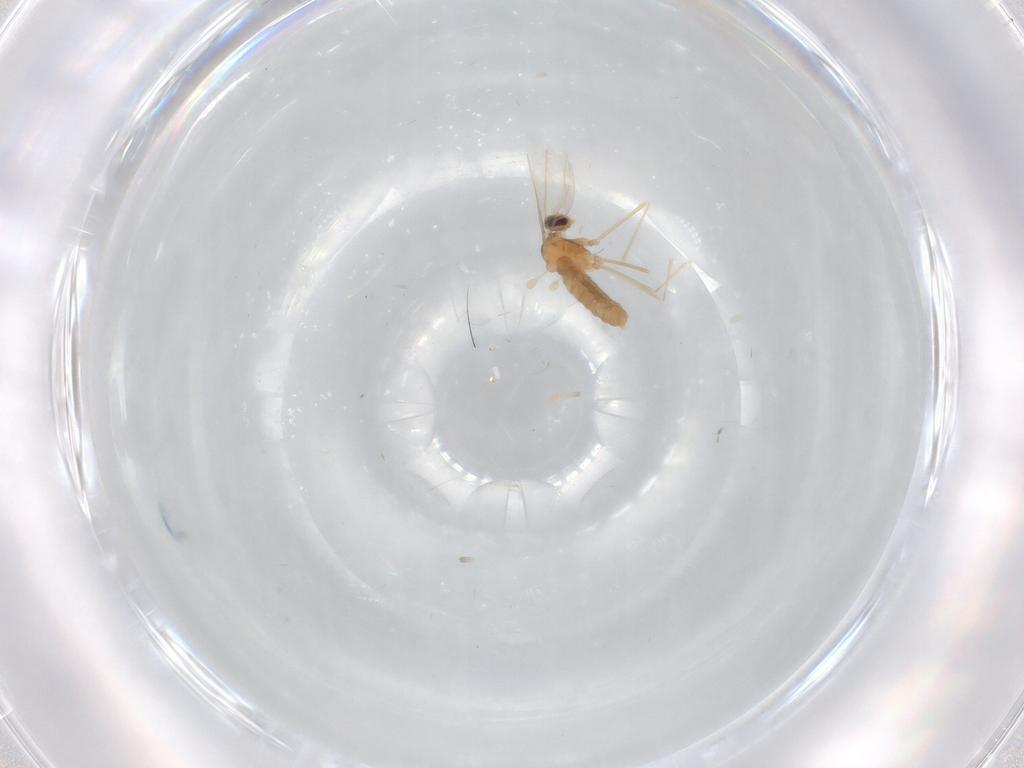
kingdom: Animalia
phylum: Arthropoda
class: Insecta
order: Diptera
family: Cecidomyiidae
